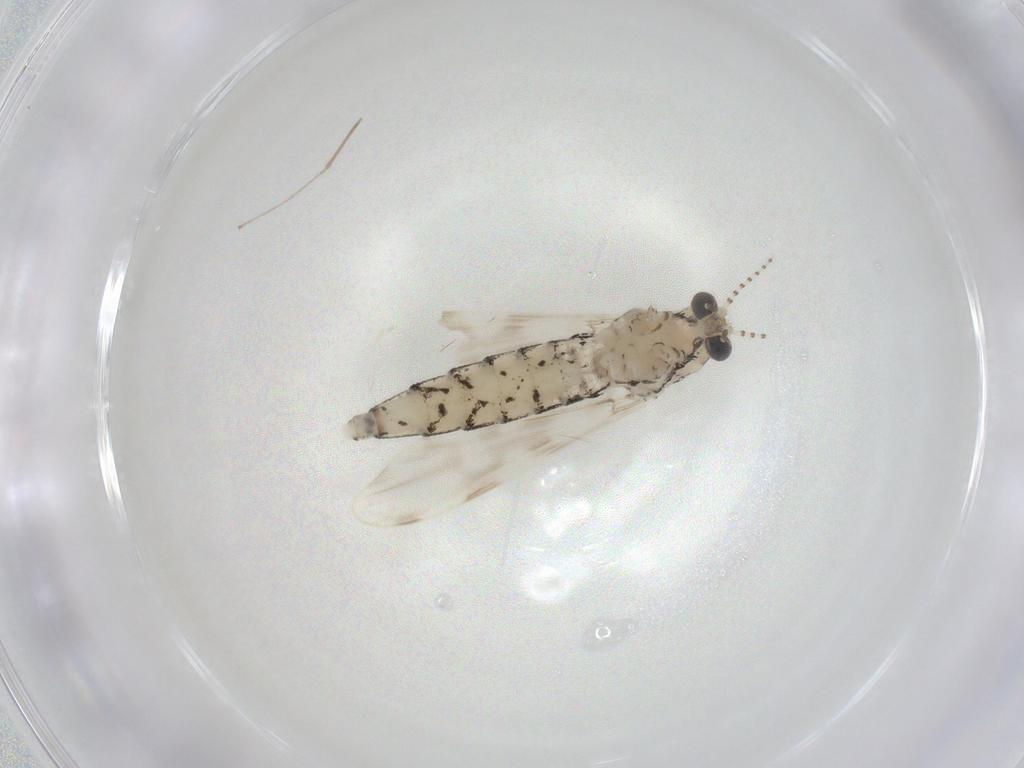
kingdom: Animalia
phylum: Arthropoda
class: Insecta
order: Diptera
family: Cecidomyiidae
